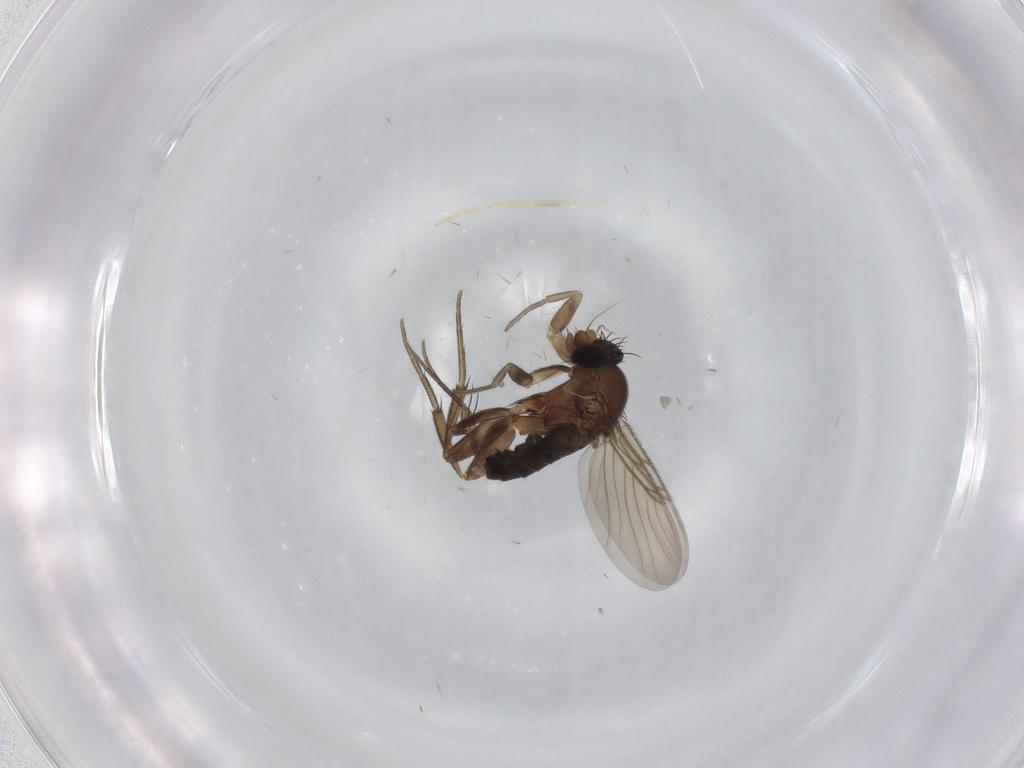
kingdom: Animalia
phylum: Arthropoda
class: Insecta
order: Diptera
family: Phoridae
